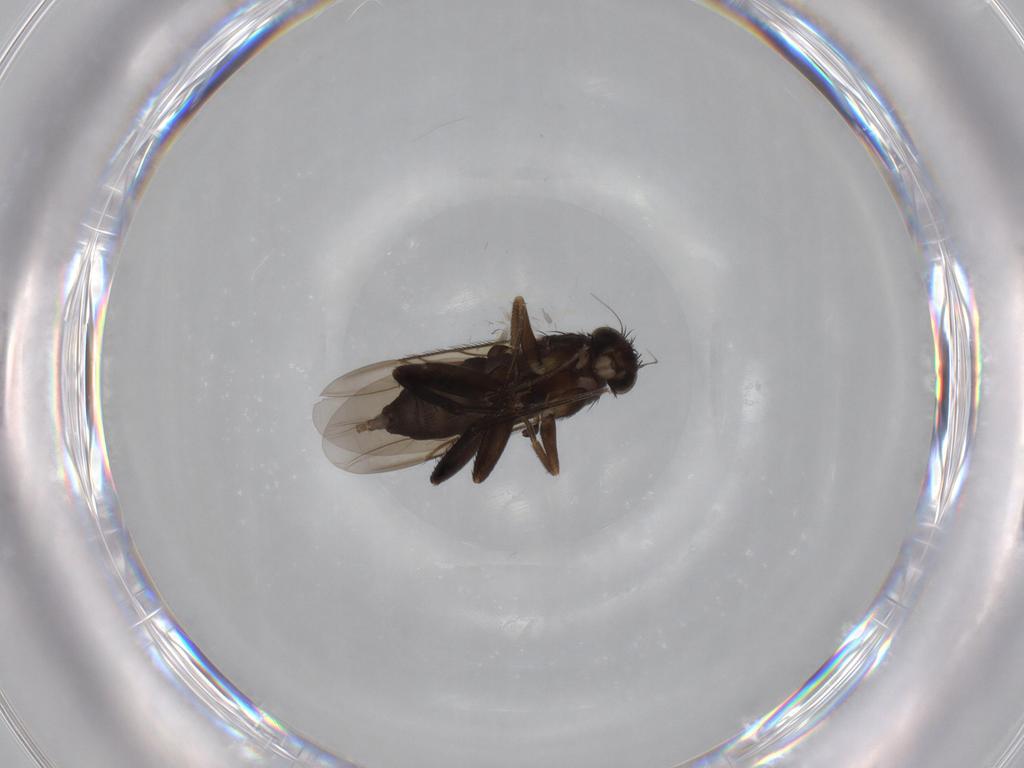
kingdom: Animalia
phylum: Arthropoda
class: Insecta
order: Diptera
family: Phoridae
